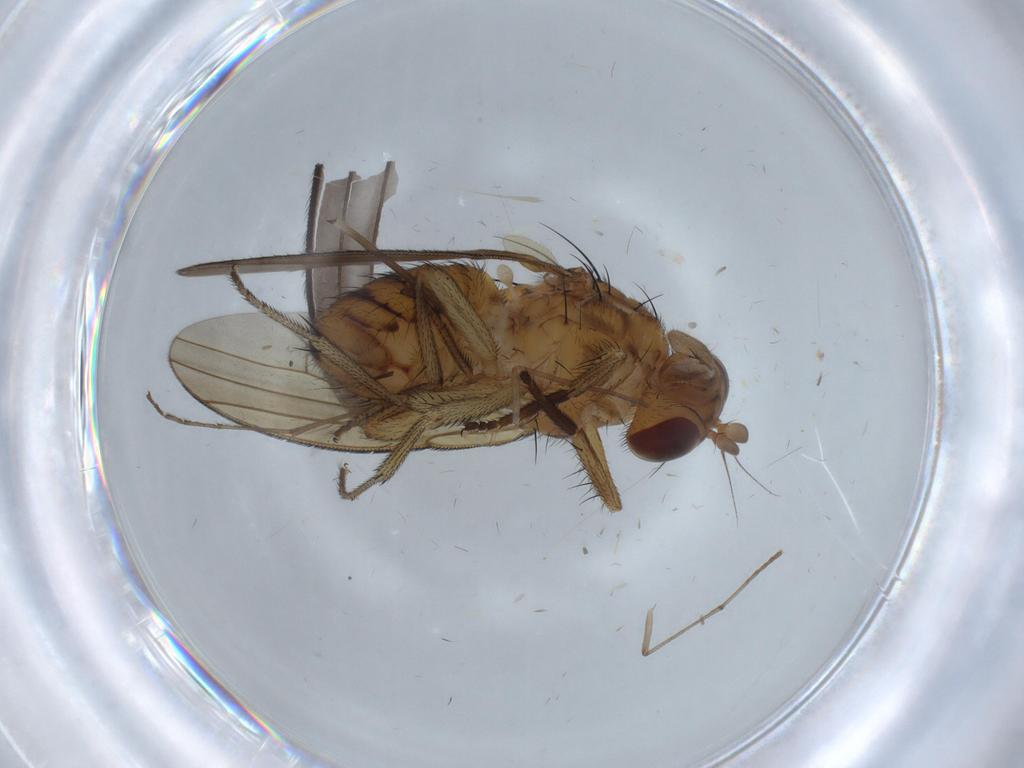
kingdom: Animalia
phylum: Arthropoda
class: Insecta
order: Diptera
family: Limoniidae
